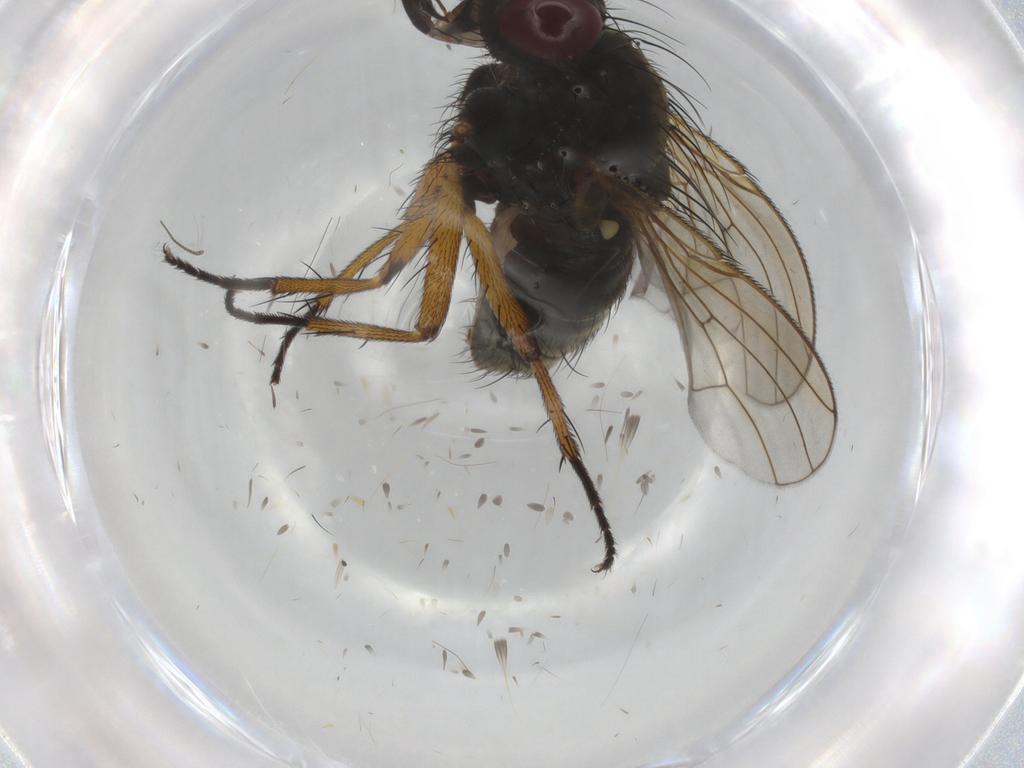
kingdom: Animalia
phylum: Arthropoda
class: Insecta
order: Diptera
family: Muscidae
